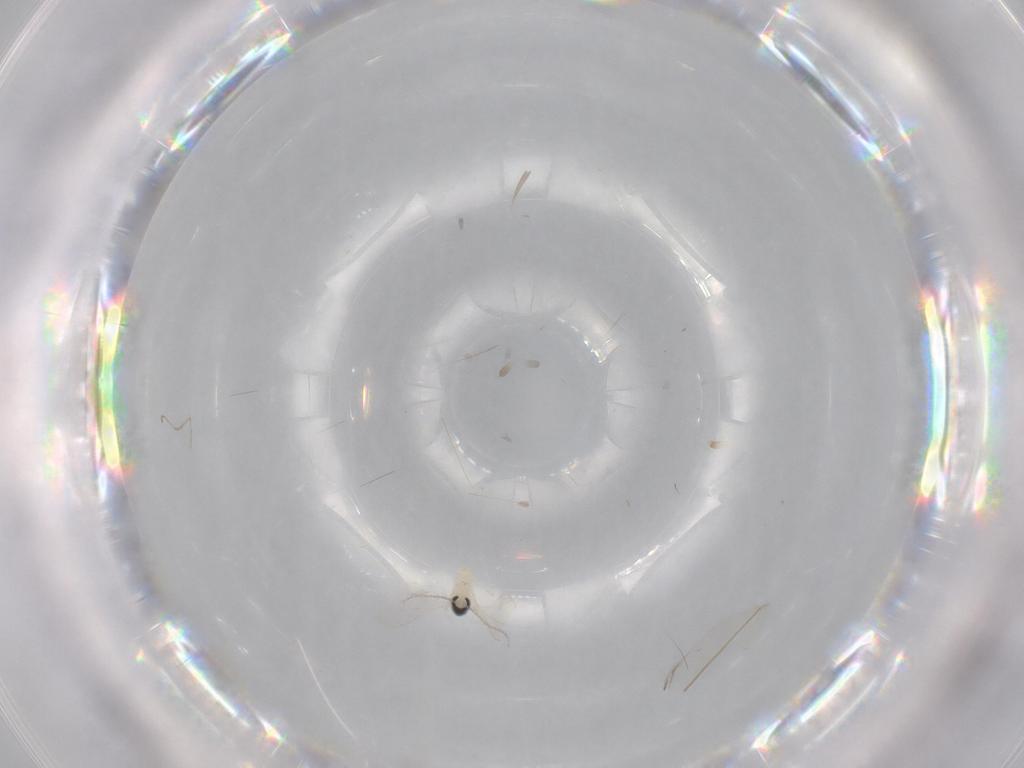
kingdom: Animalia
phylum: Arthropoda
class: Insecta
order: Diptera
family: Cecidomyiidae
